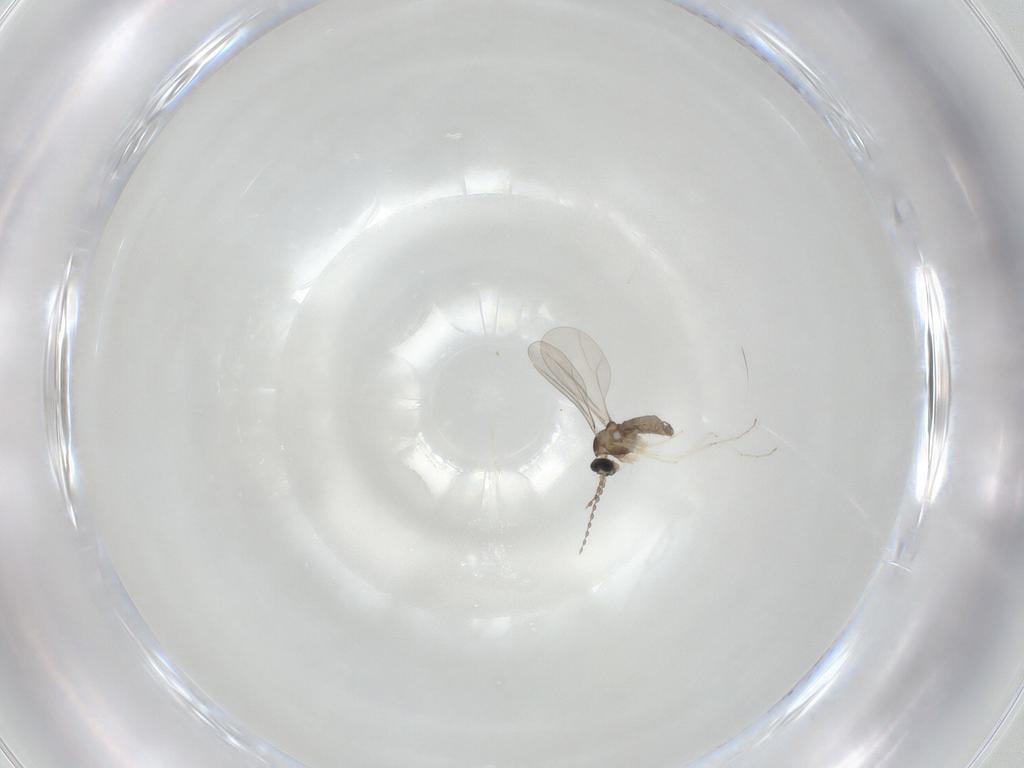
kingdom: Animalia
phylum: Arthropoda
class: Insecta
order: Diptera
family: Cecidomyiidae
